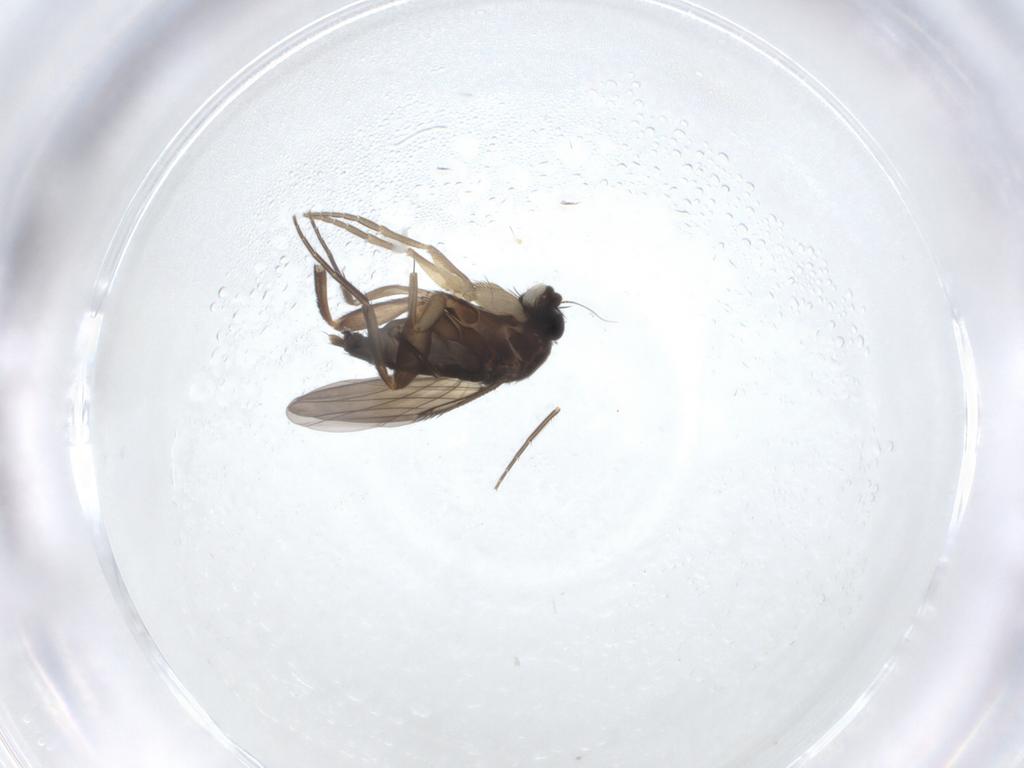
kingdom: Animalia
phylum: Arthropoda
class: Insecta
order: Diptera
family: Phoridae
